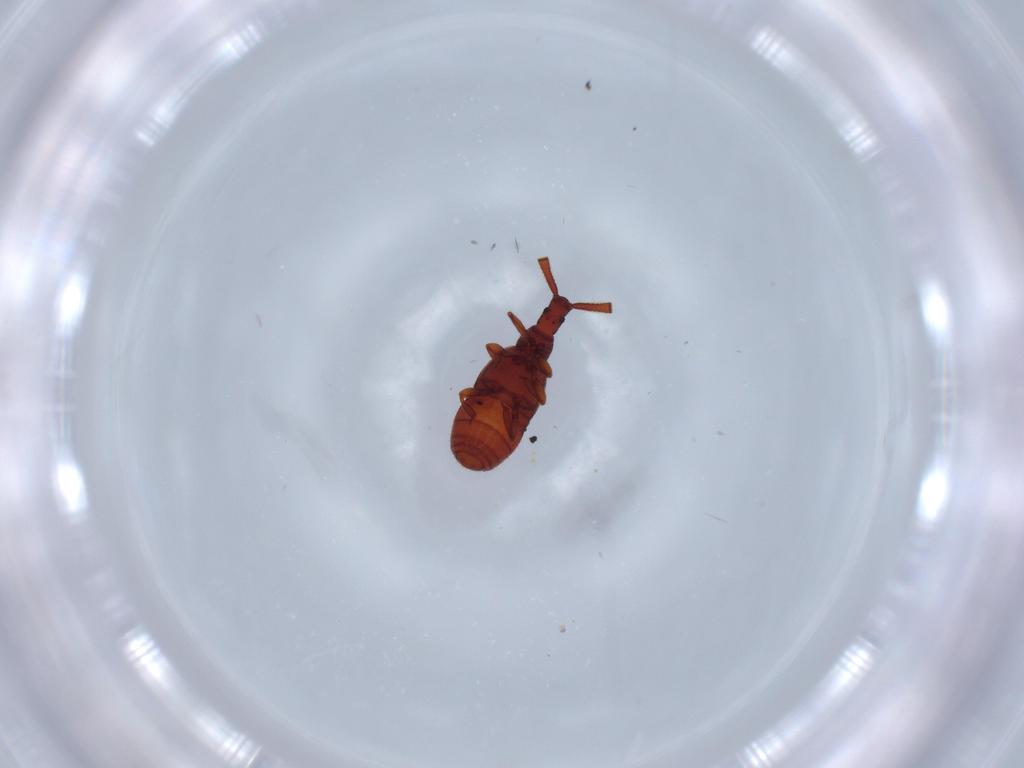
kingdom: Animalia
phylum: Arthropoda
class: Insecta
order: Coleoptera
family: Staphylinidae
